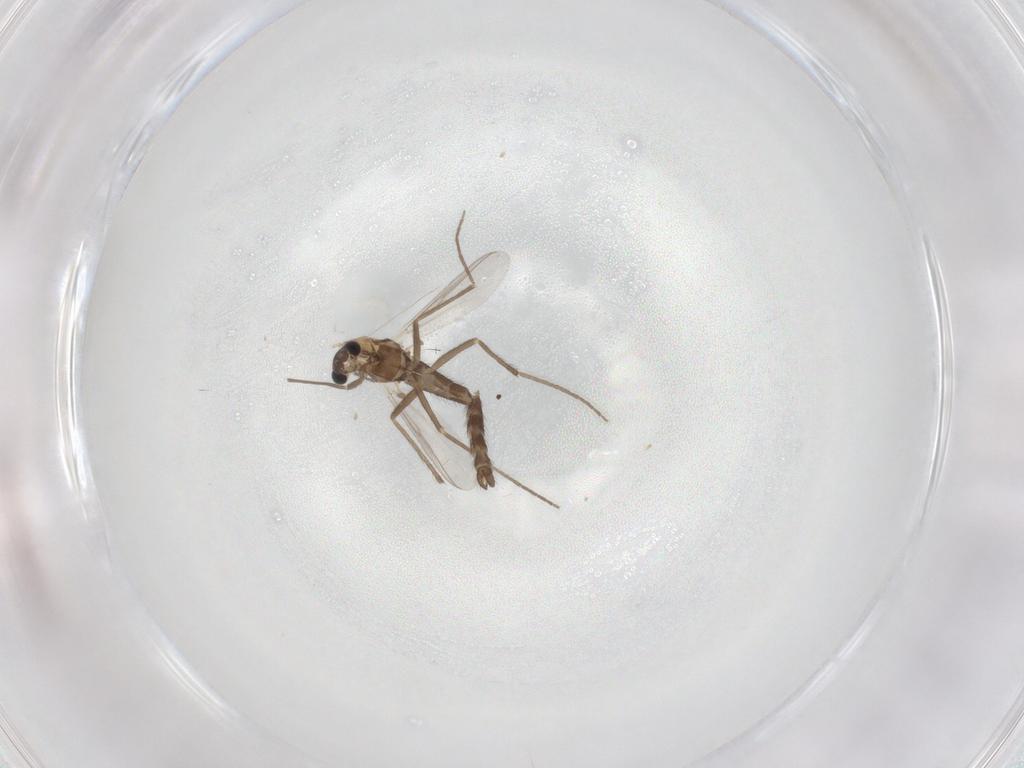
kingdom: Animalia
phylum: Arthropoda
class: Insecta
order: Diptera
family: Chironomidae
